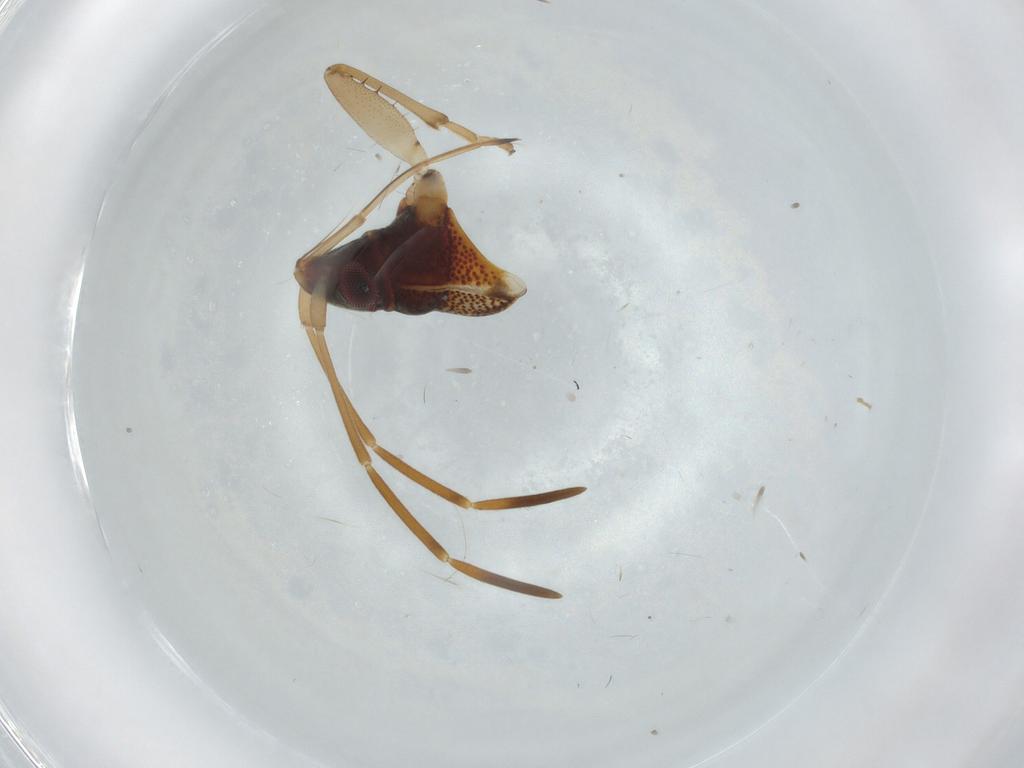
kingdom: Animalia
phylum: Arthropoda
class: Insecta
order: Hemiptera
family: Rhyparochromidae
